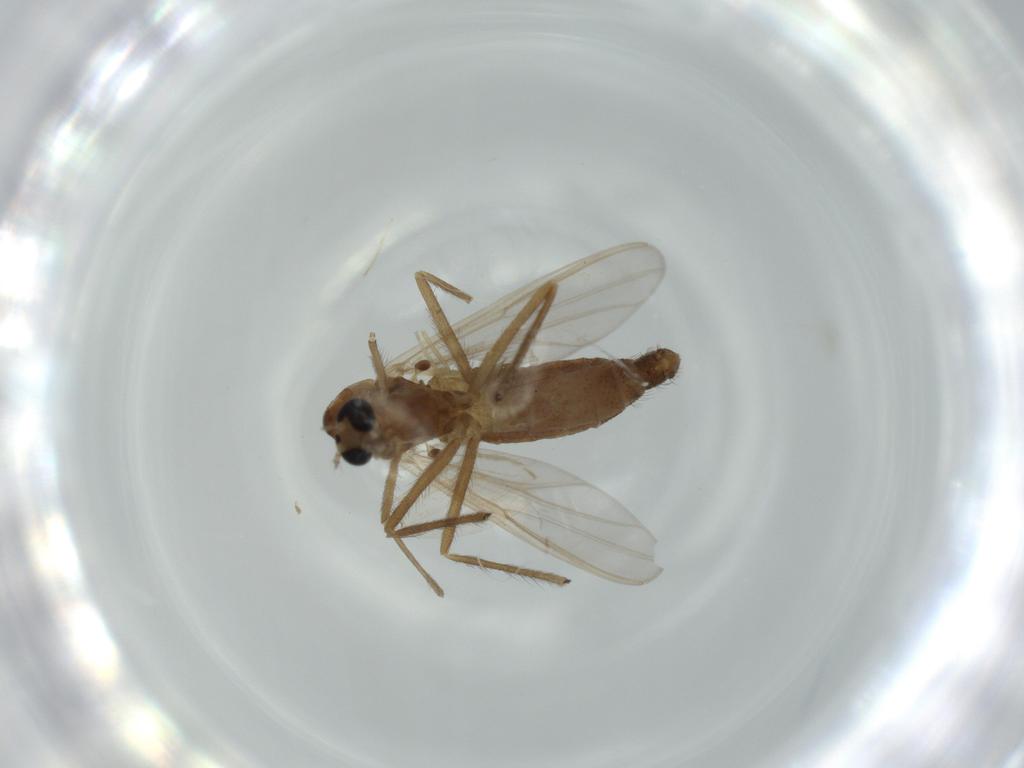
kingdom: Animalia
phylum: Arthropoda
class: Insecta
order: Diptera
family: Chironomidae
